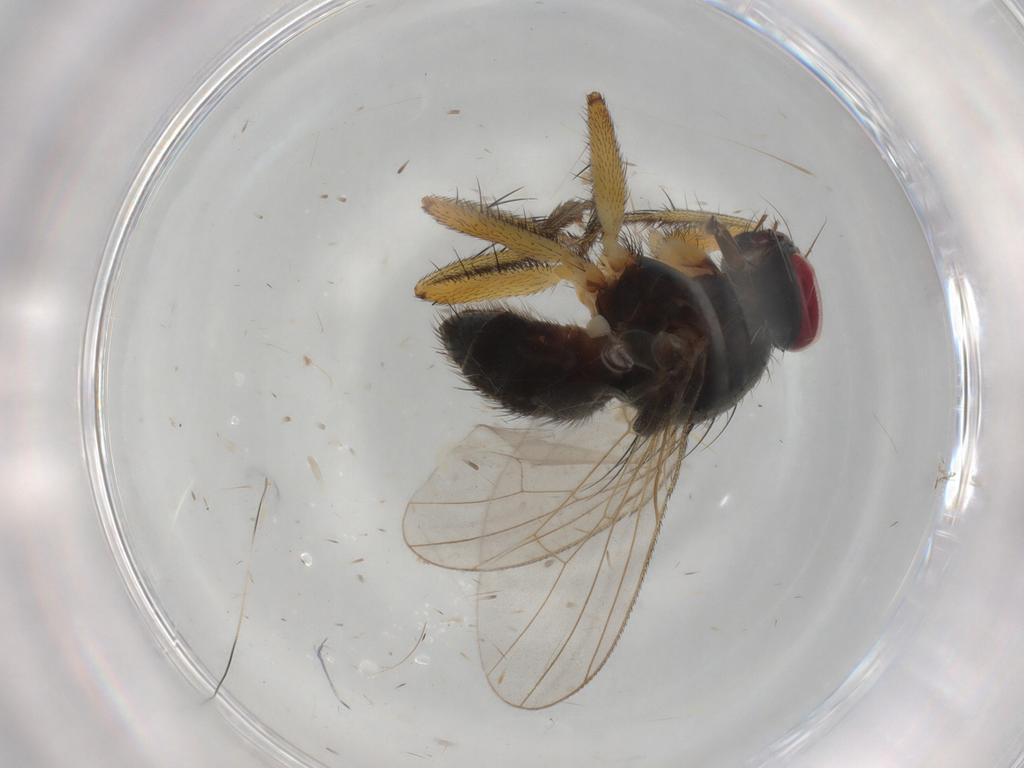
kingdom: Animalia
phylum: Arthropoda
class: Insecta
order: Diptera
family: Muscidae
